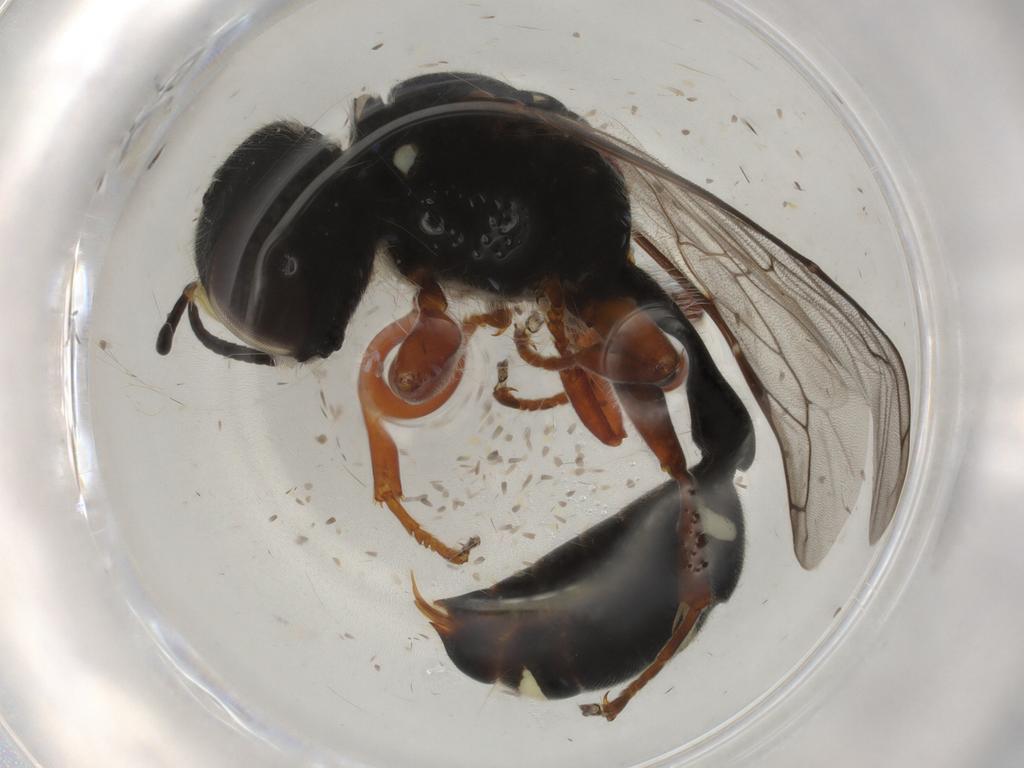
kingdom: Animalia
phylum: Arthropoda
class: Insecta
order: Hymenoptera
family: Crabronidae
